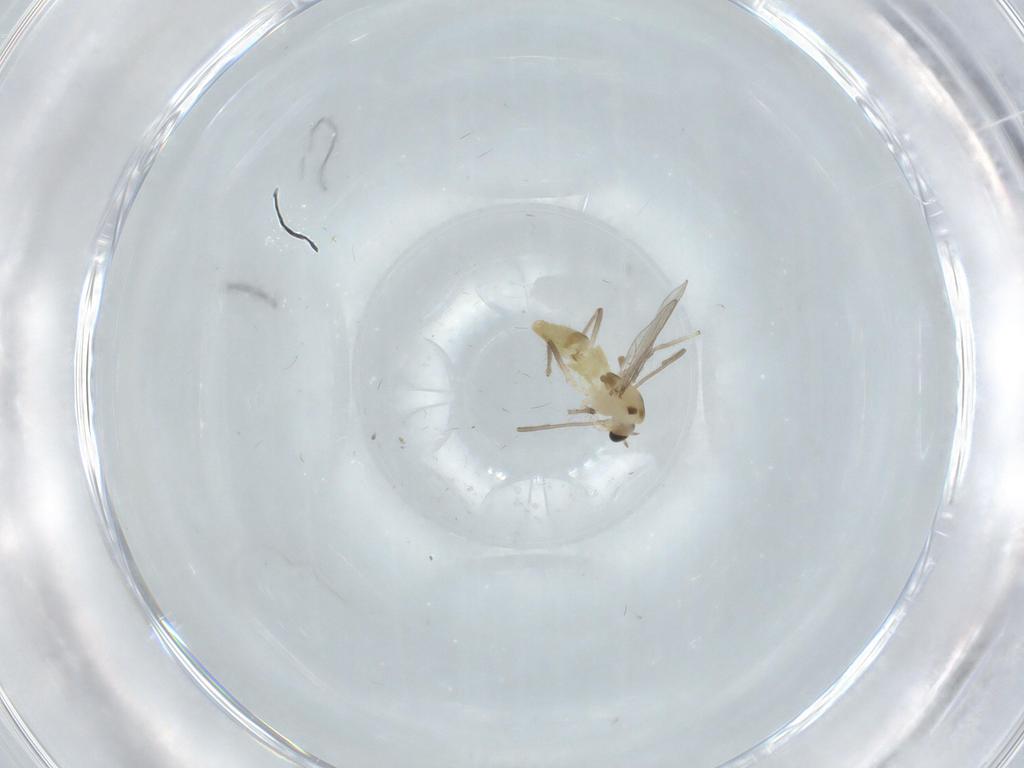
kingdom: Animalia
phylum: Arthropoda
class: Insecta
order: Diptera
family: Chironomidae
